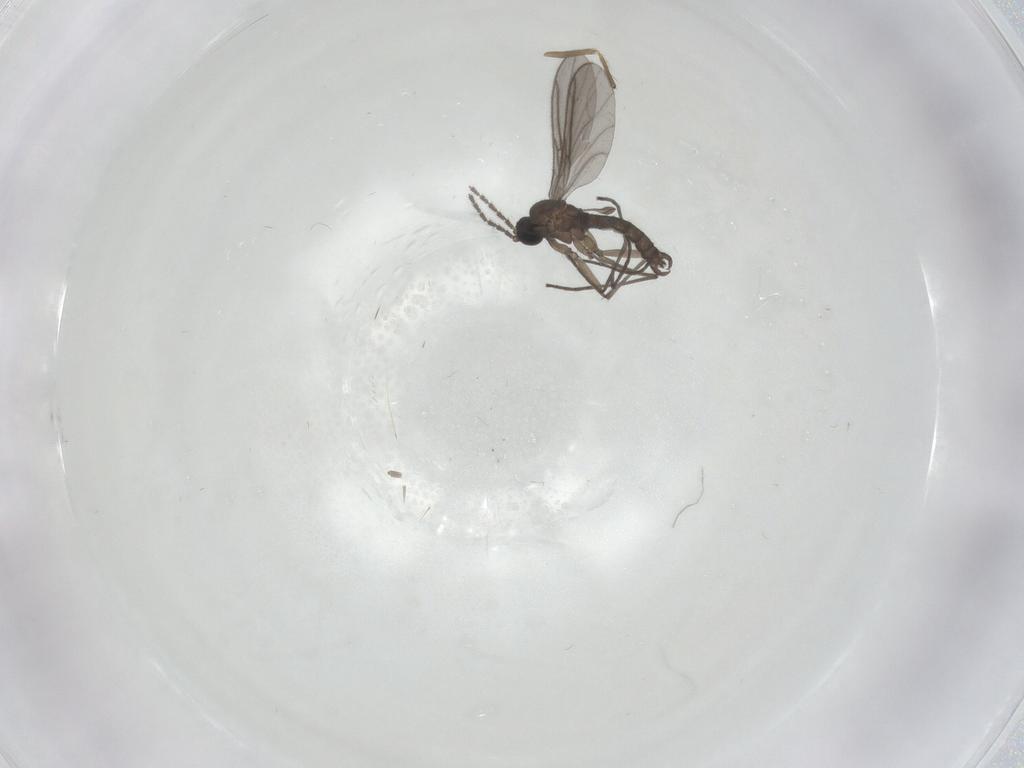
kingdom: Animalia
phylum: Arthropoda
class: Insecta
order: Diptera
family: Sciaridae
